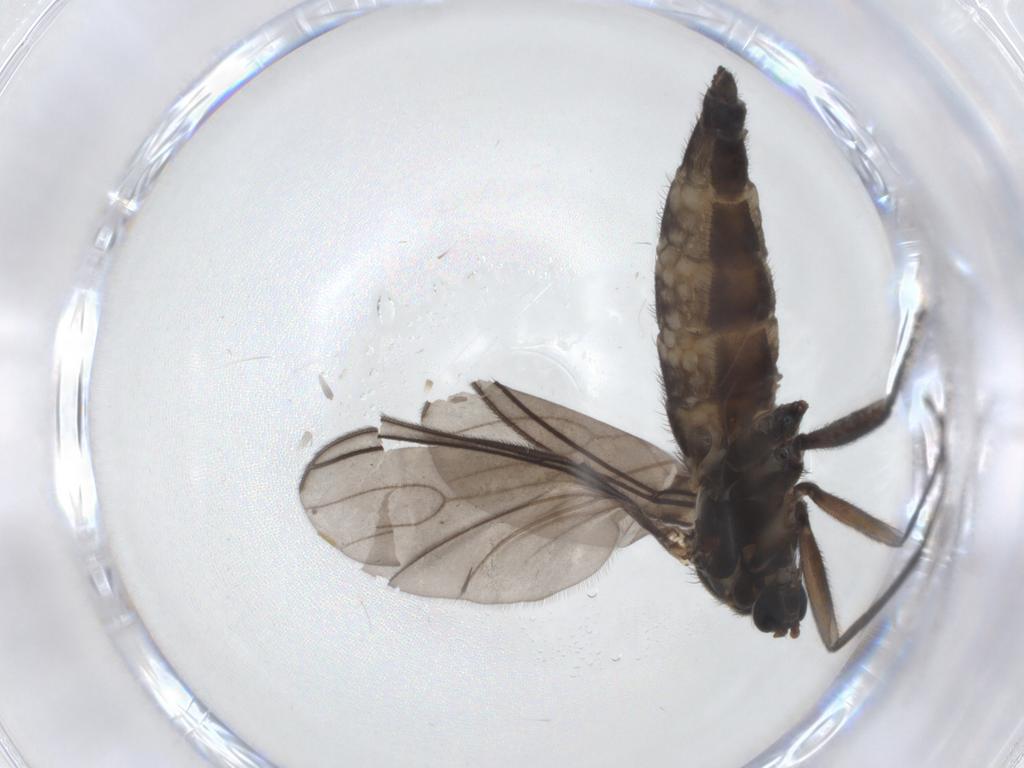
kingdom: Animalia
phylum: Arthropoda
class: Insecta
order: Diptera
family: Sciaridae
